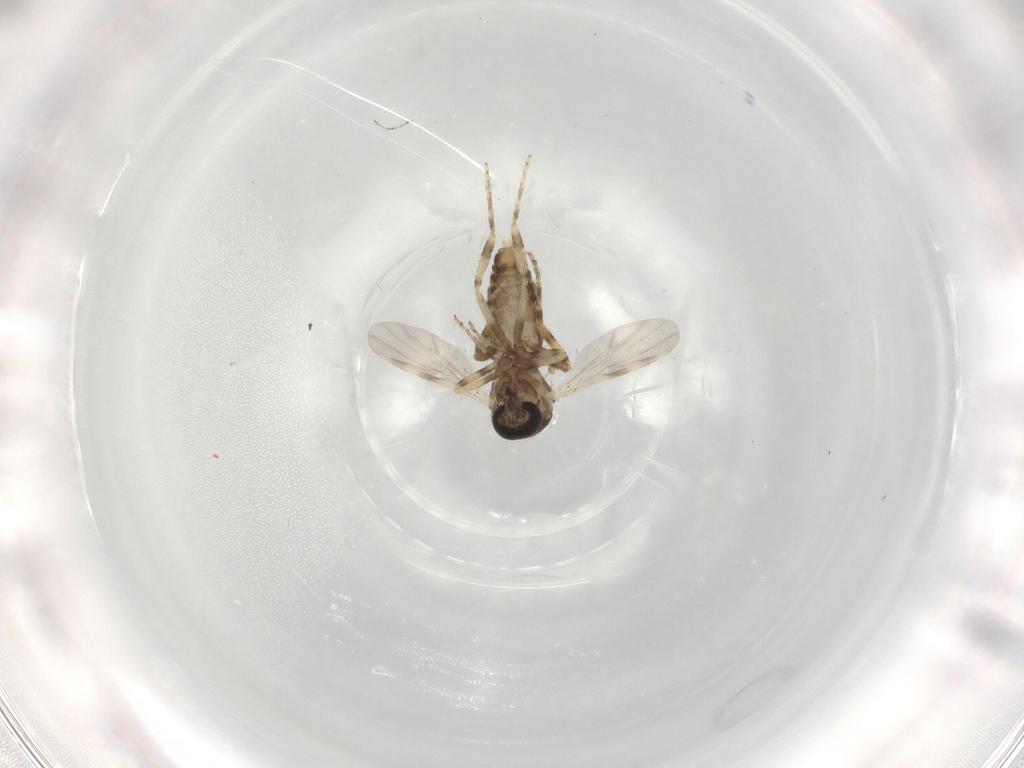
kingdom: Animalia
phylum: Arthropoda
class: Insecta
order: Diptera
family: Ceratopogonidae
